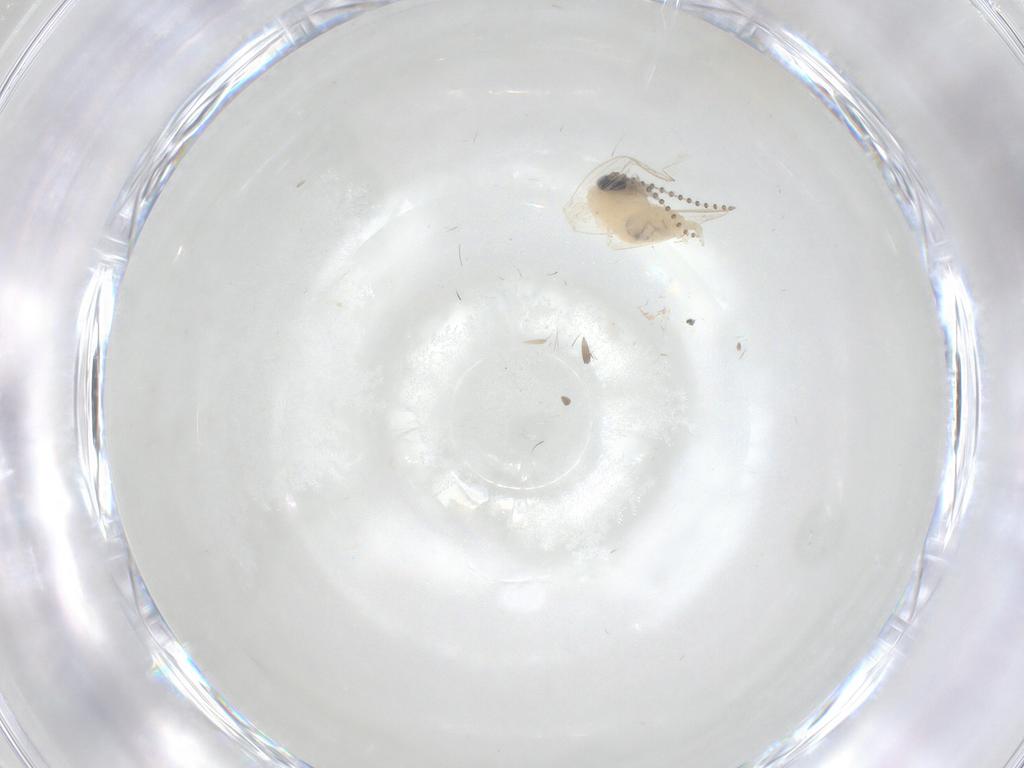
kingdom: Animalia
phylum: Arthropoda
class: Insecta
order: Diptera
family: Psychodidae
